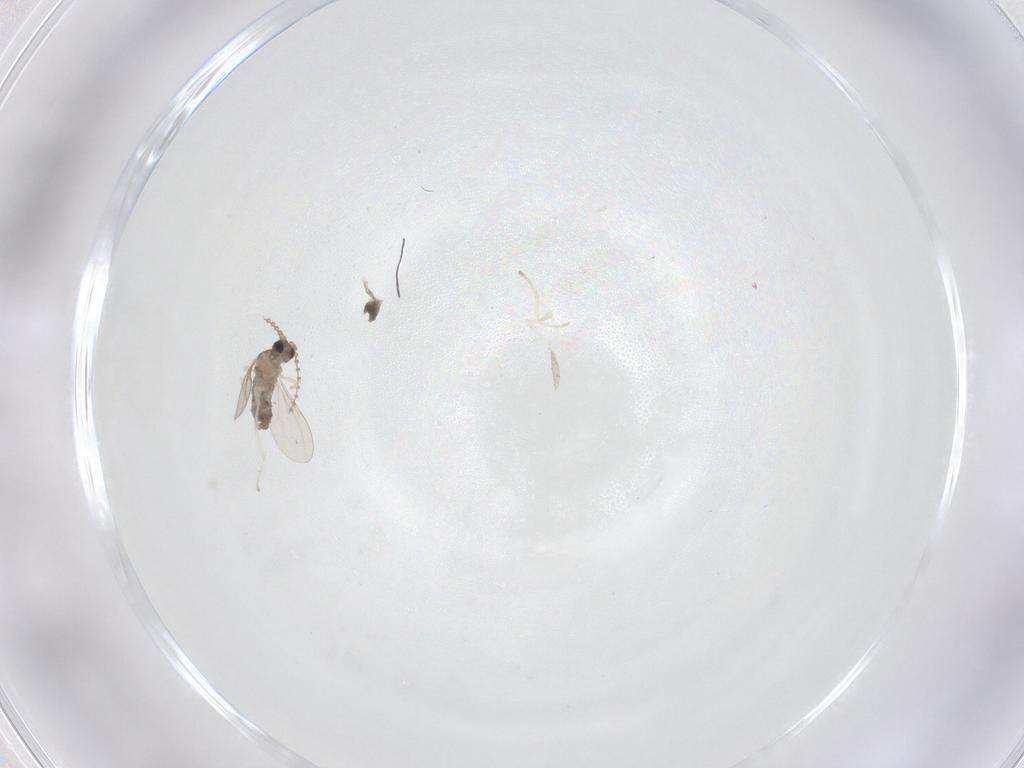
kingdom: Animalia
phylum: Arthropoda
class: Insecta
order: Diptera
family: Cecidomyiidae
